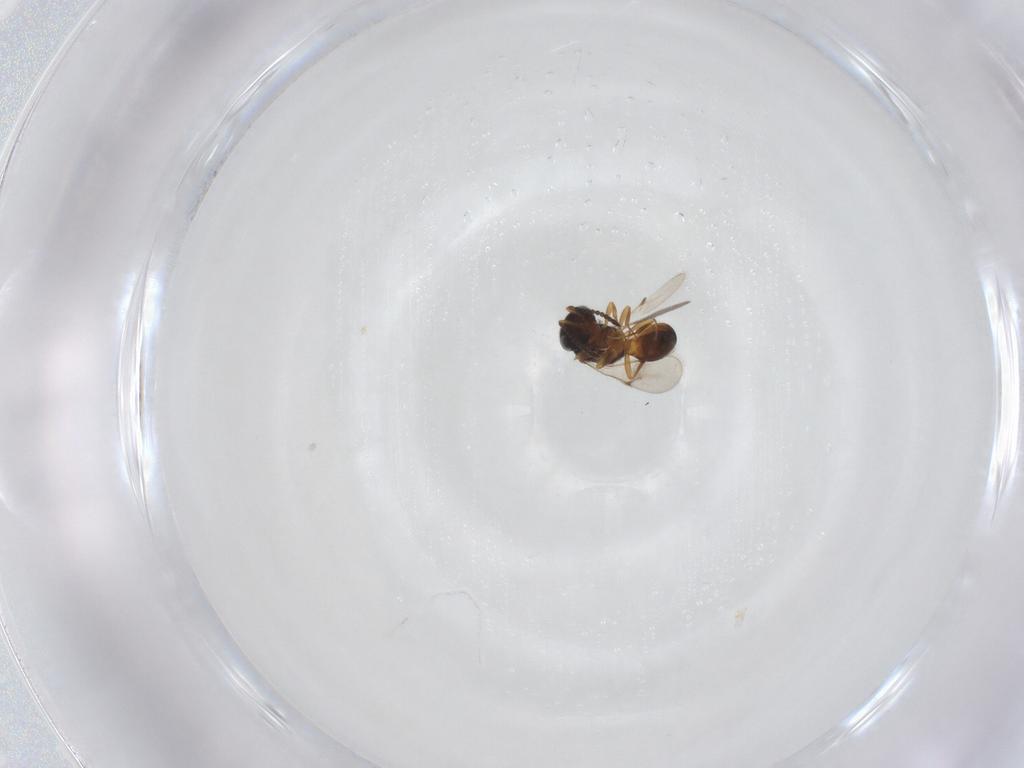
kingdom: Animalia
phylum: Arthropoda
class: Arachnida
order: Araneae
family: Pholcidae
